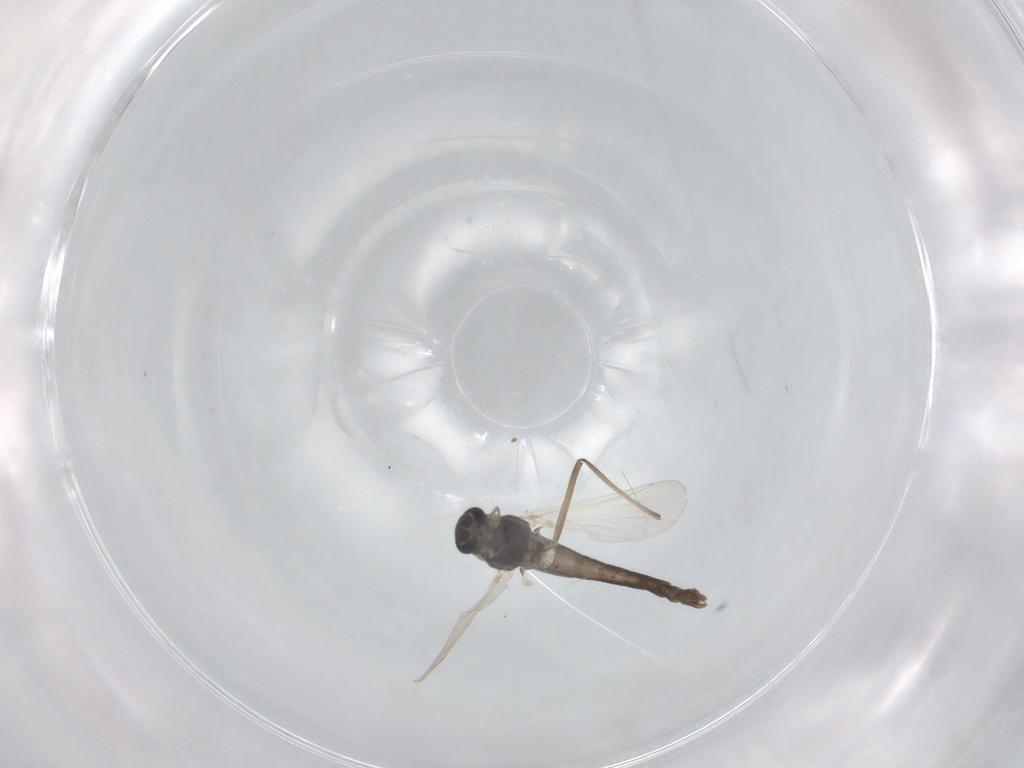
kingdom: Animalia
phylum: Arthropoda
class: Insecta
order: Diptera
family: Chironomidae
